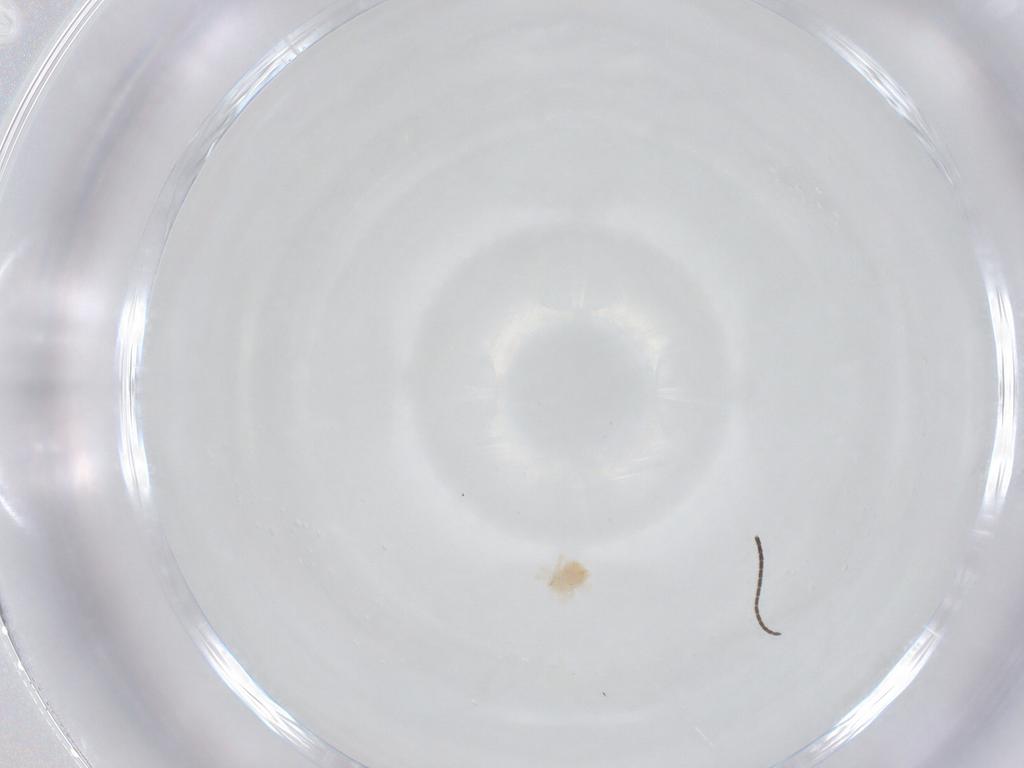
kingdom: Animalia
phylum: Arthropoda
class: Insecta
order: Diptera
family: Sciaridae
